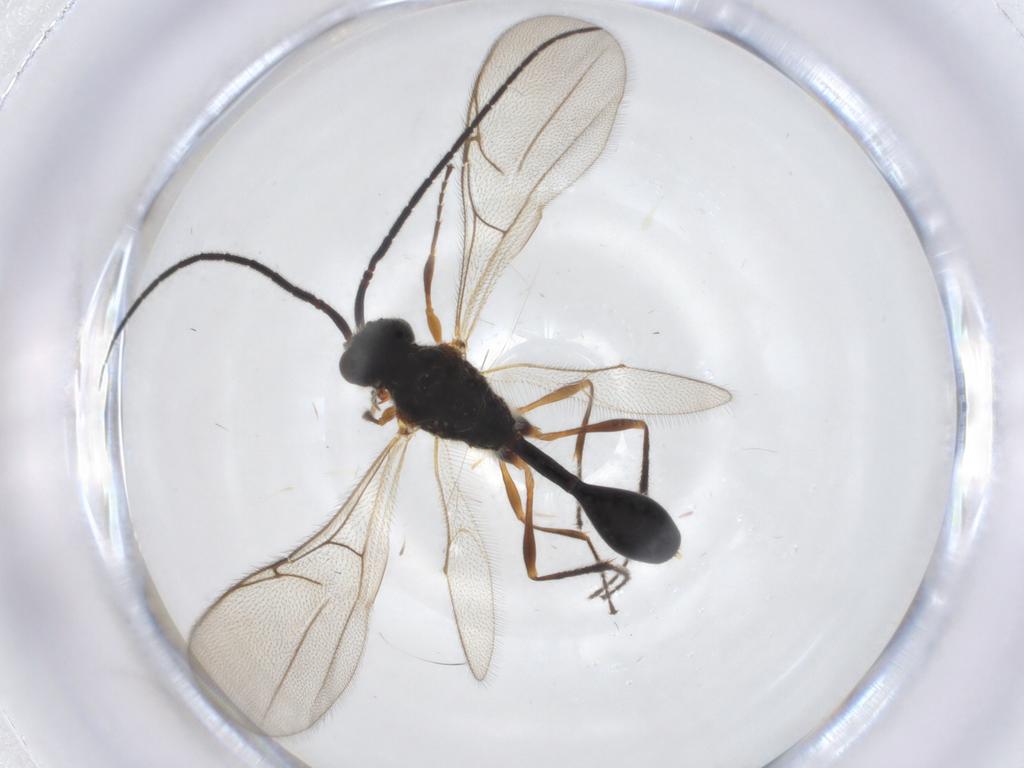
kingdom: Animalia
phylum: Arthropoda
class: Insecta
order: Hymenoptera
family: Diapriidae
